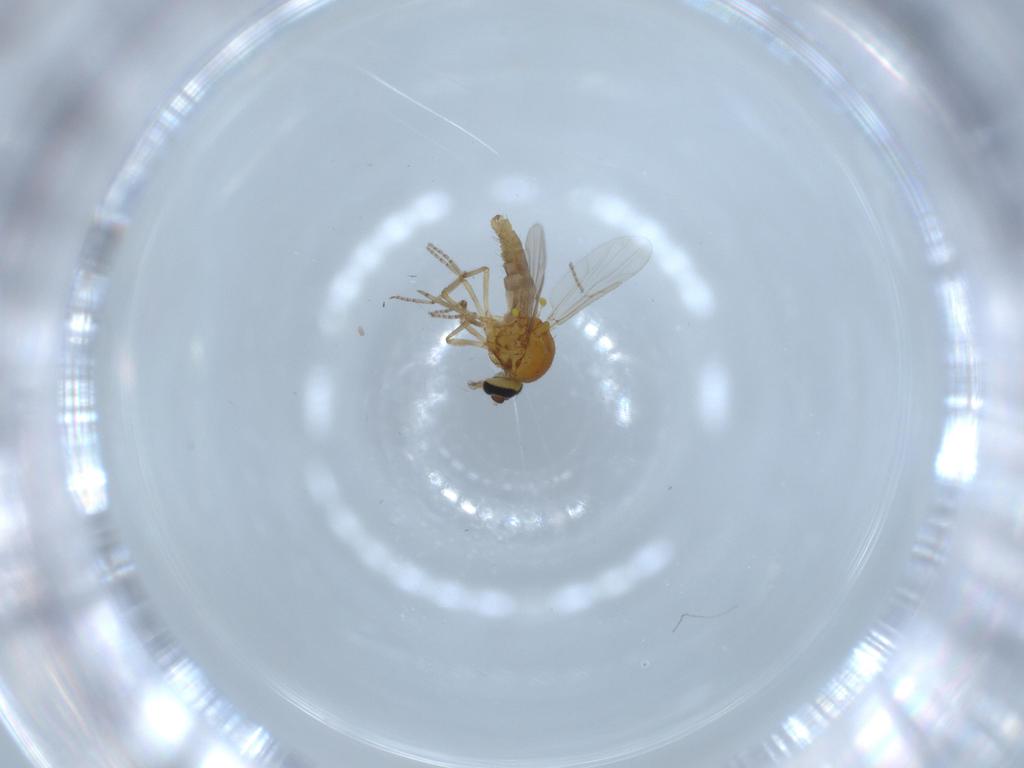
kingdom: Animalia
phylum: Arthropoda
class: Insecta
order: Diptera
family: Ceratopogonidae
